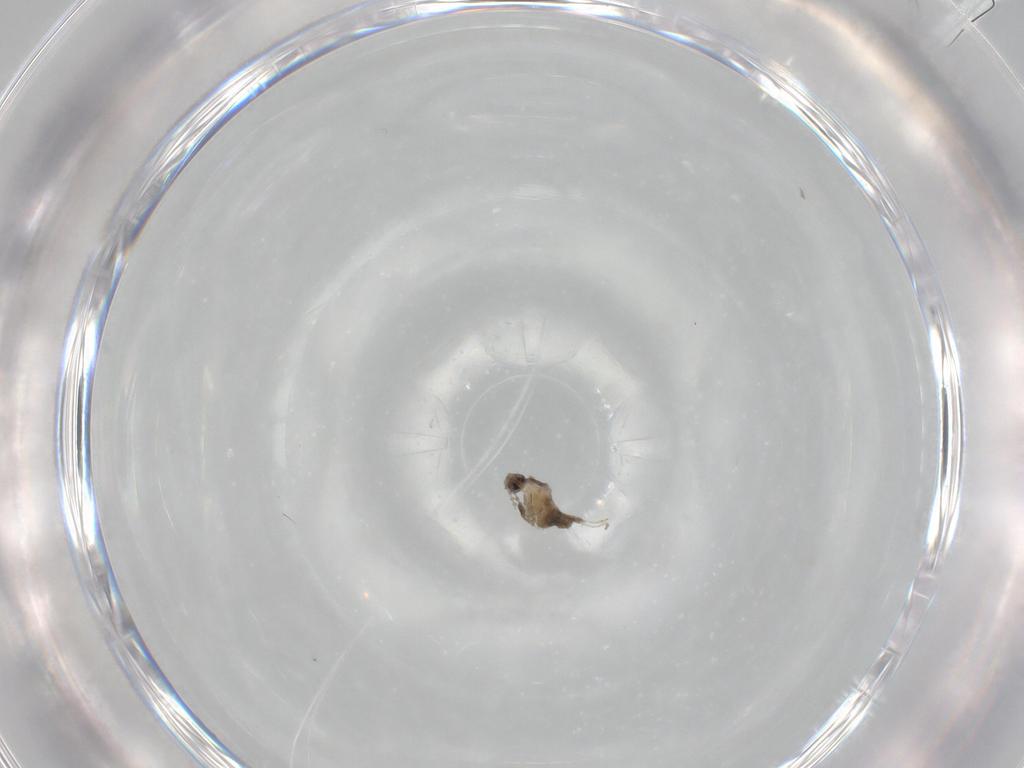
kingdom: Animalia
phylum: Arthropoda
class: Insecta
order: Diptera
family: Cecidomyiidae
